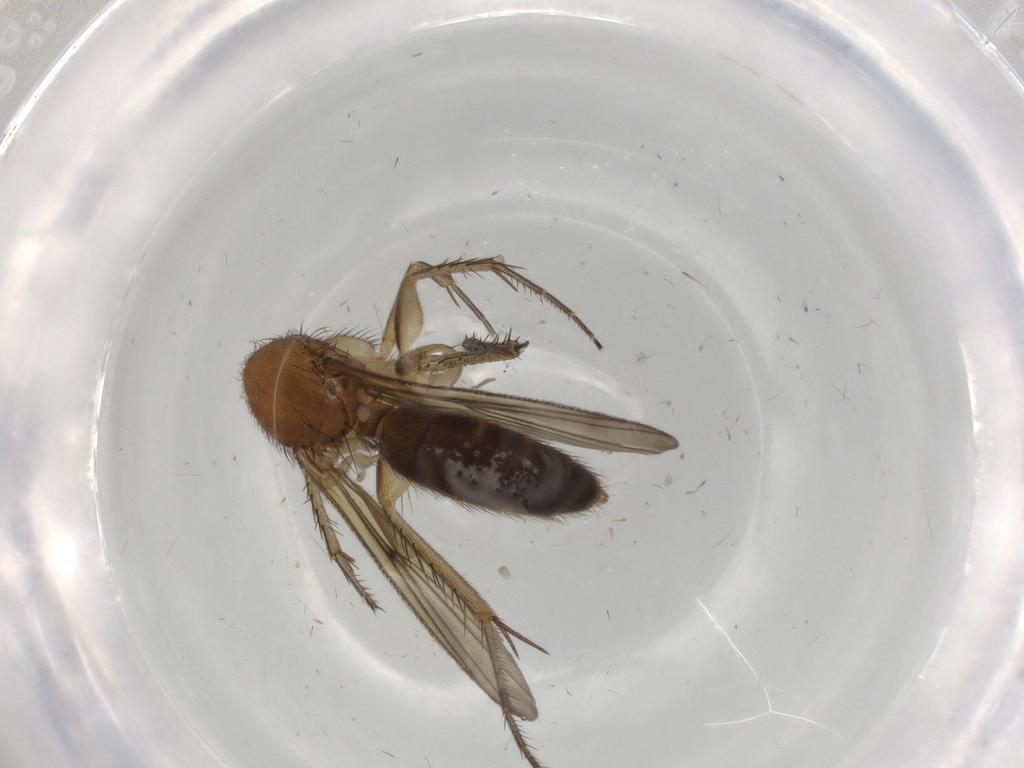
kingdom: Animalia
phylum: Arthropoda
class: Insecta
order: Diptera
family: Mycetophilidae
